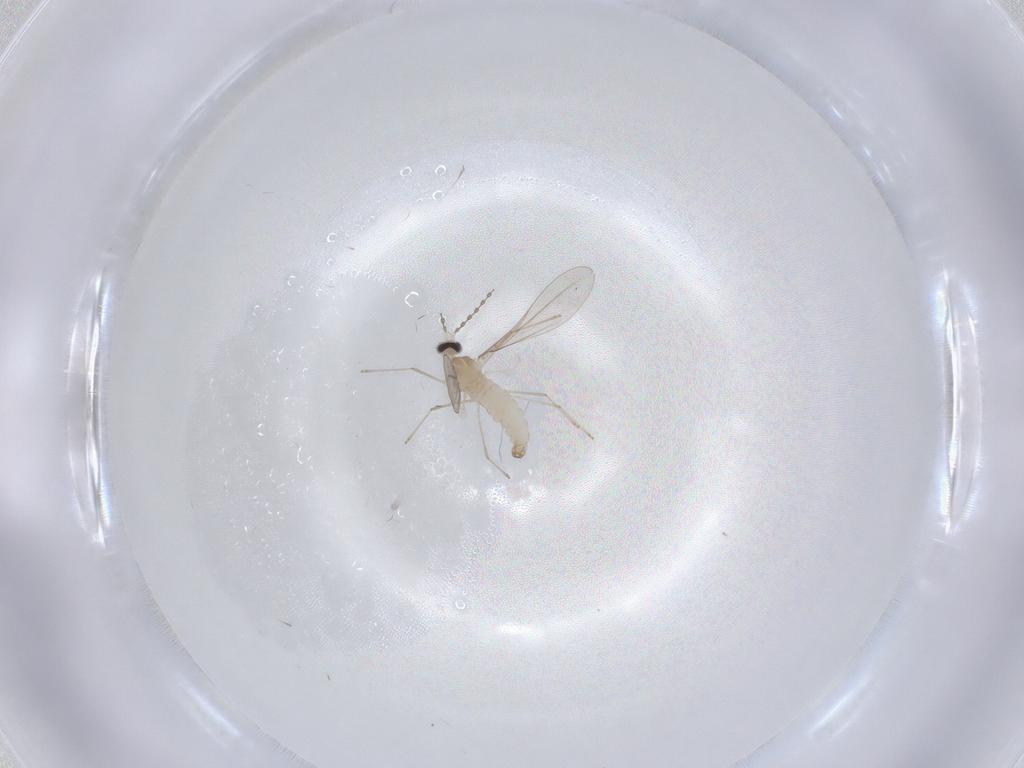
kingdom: Animalia
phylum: Arthropoda
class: Insecta
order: Diptera
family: Cecidomyiidae
